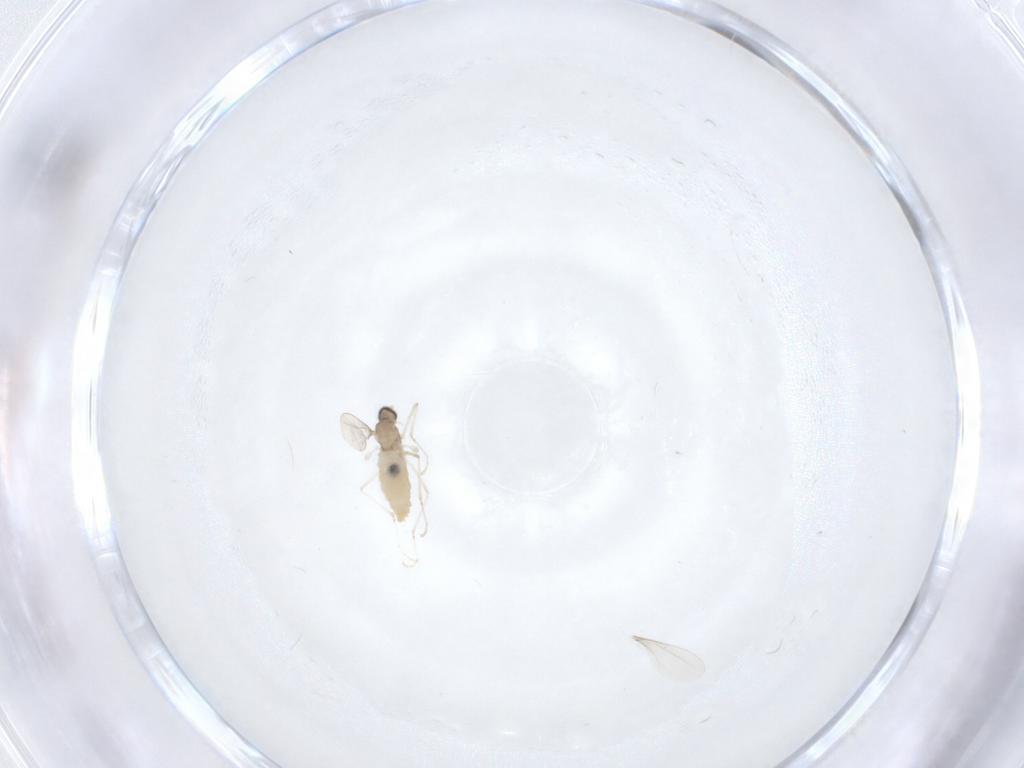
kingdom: Animalia
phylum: Arthropoda
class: Insecta
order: Diptera
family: Cecidomyiidae
